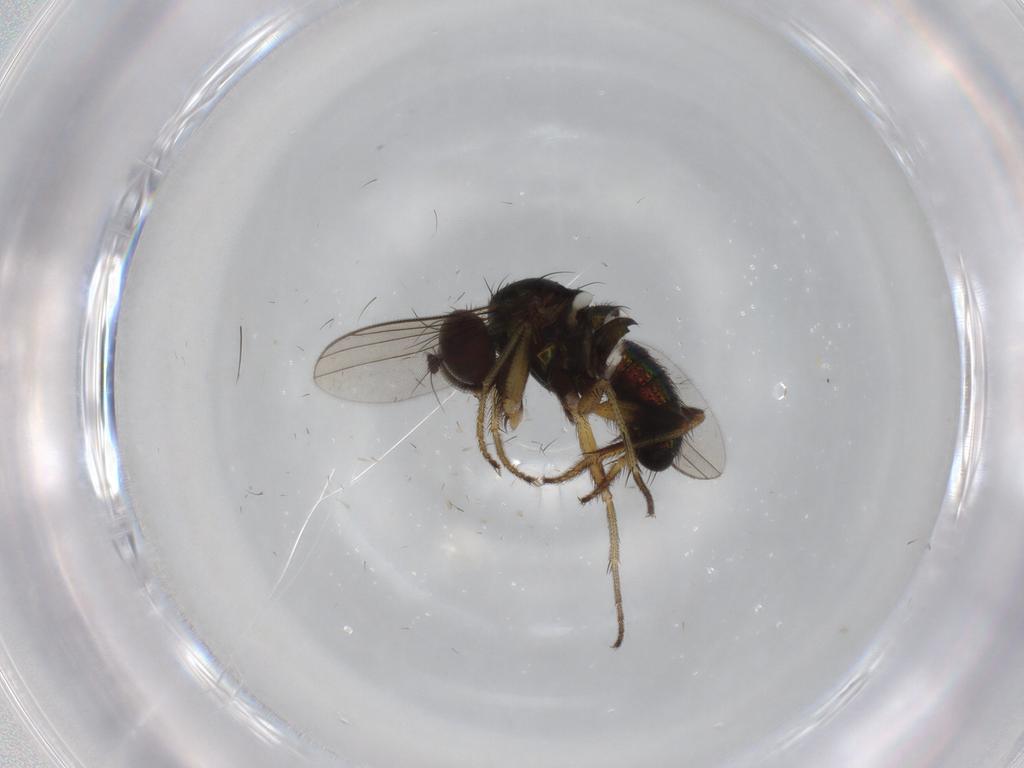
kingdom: Animalia
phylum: Arthropoda
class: Insecta
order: Diptera
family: Dolichopodidae
